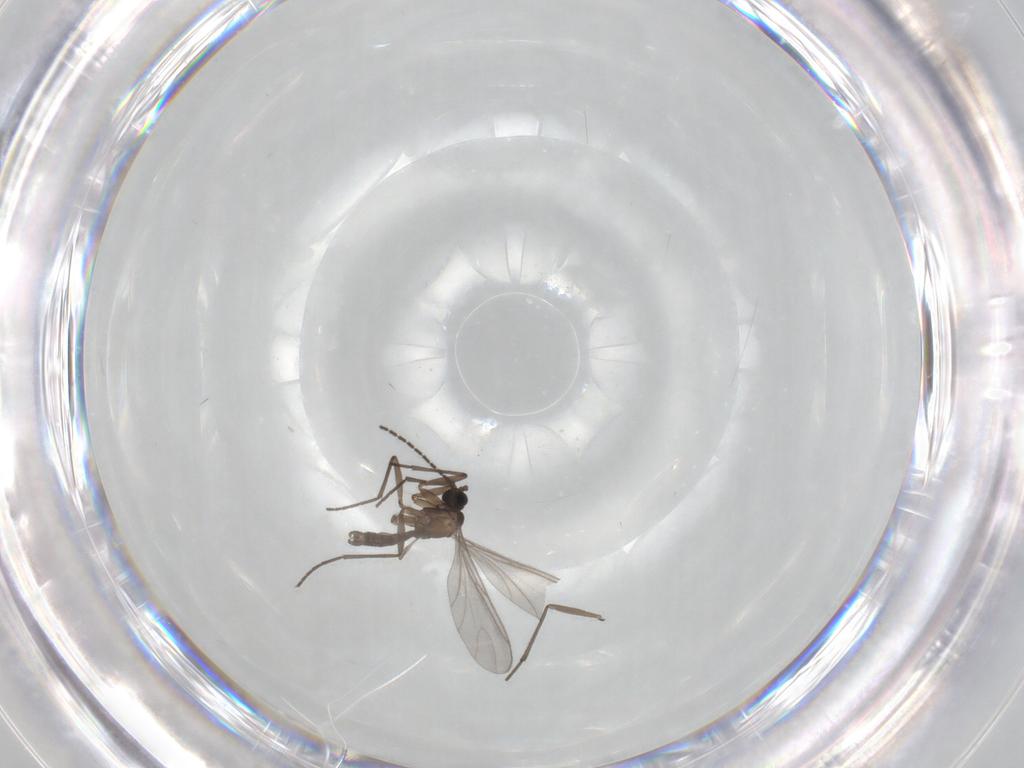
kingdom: Animalia
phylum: Arthropoda
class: Insecta
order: Diptera
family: Sciaridae
